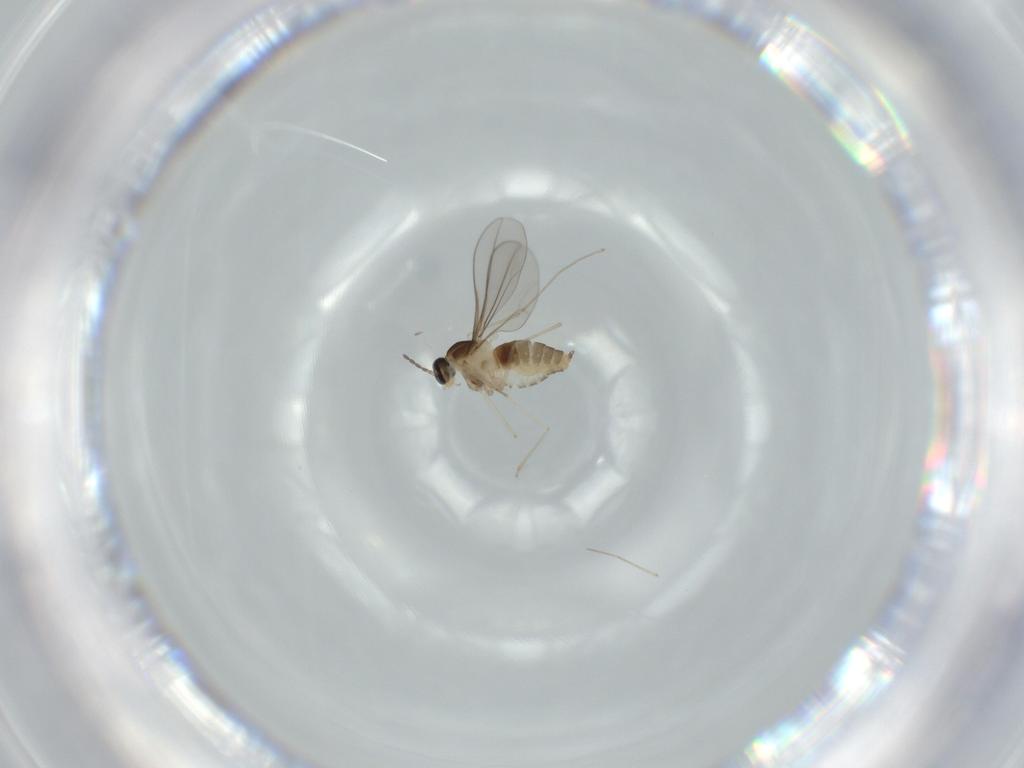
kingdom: Animalia
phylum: Arthropoda
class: Insecta
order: Diptera
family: Cecidomyiidae
